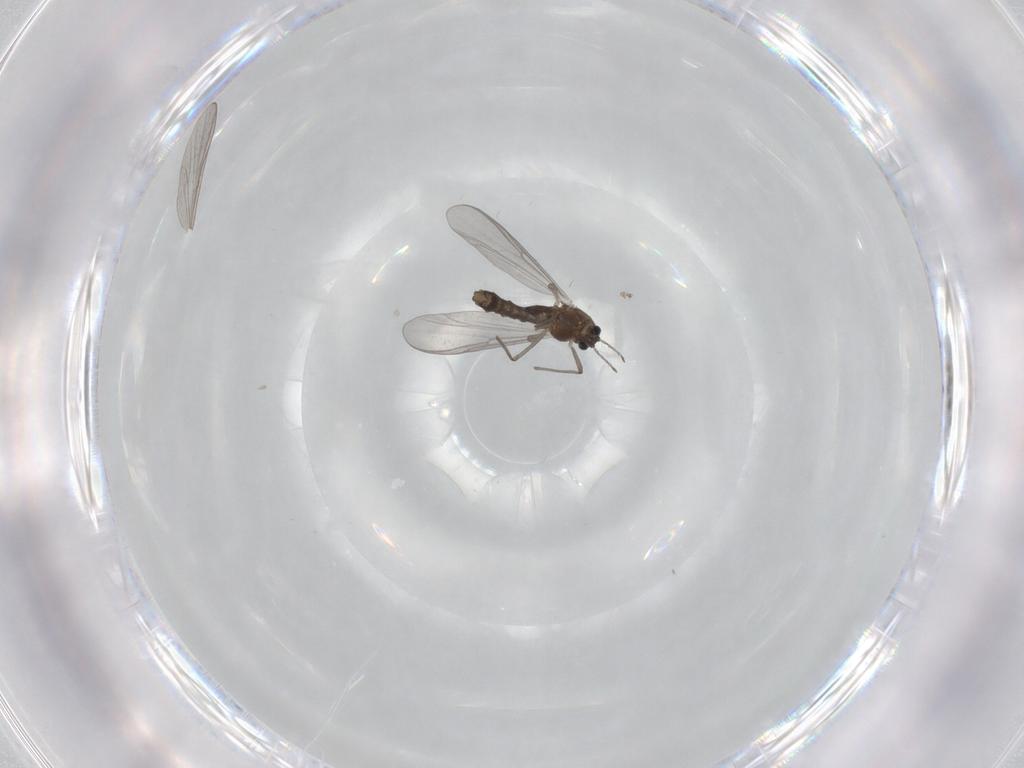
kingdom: Animalia
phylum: Arthropoda
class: Insecta
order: Diptera
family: Chironomidae
